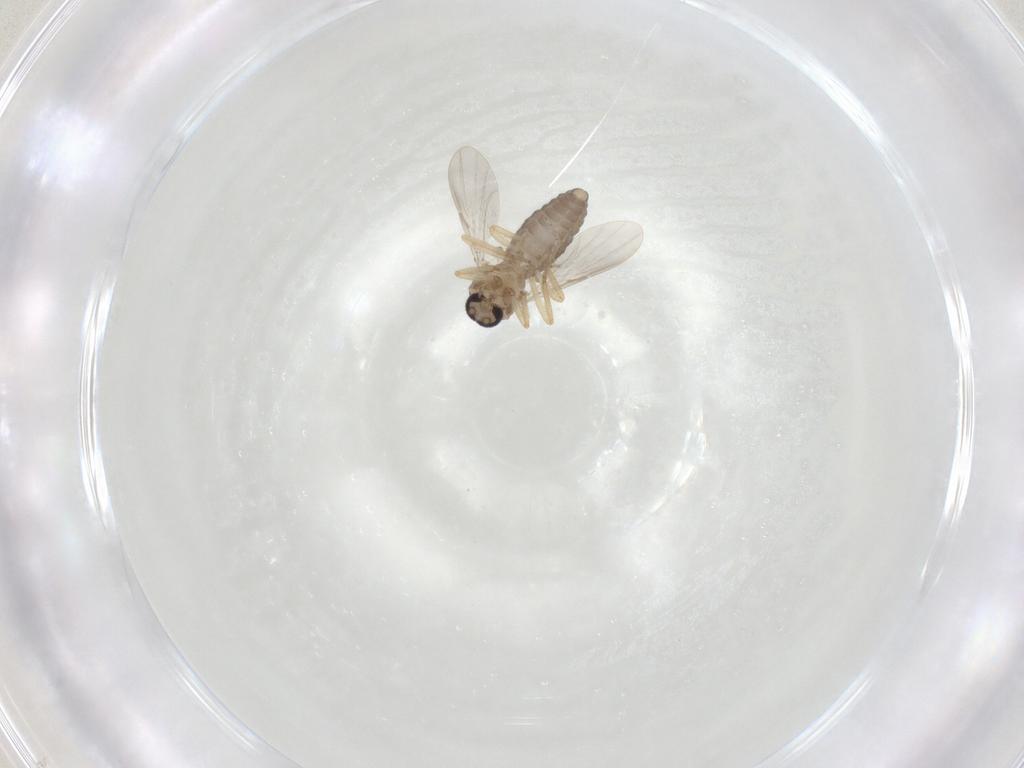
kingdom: Animalia
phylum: Arthropoda
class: Insecta
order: Diptera
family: Ceratopogonidae
